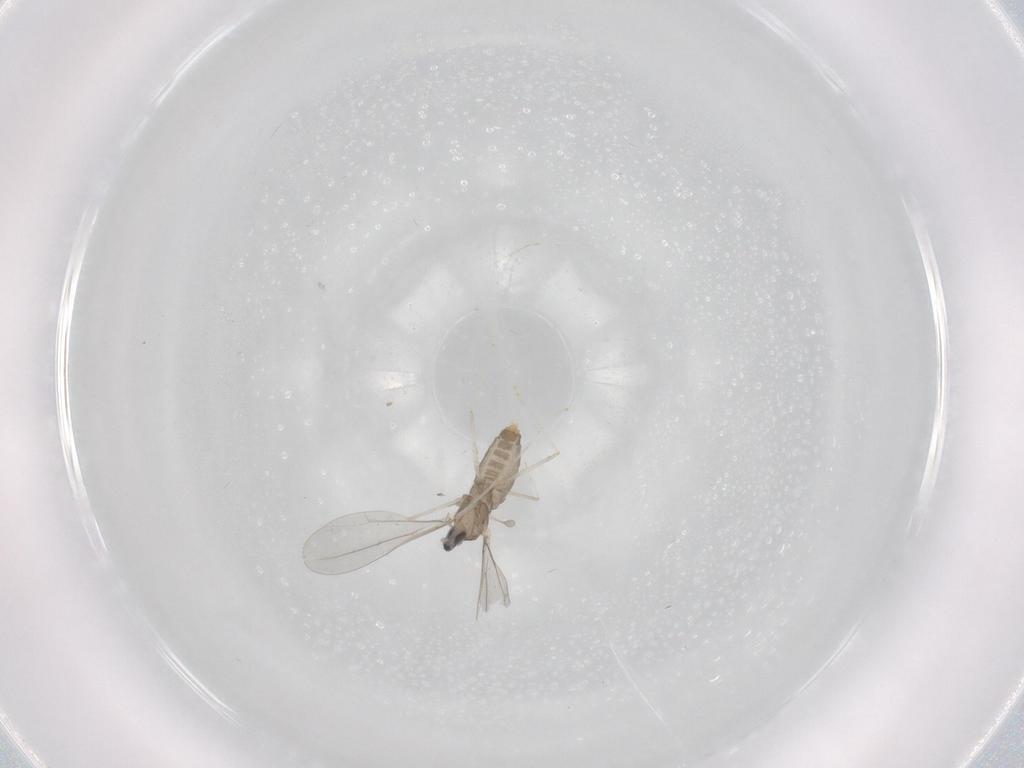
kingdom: Animalia
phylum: Arthropoda
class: Insecta
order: Diptera
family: Cecidomyiidae
